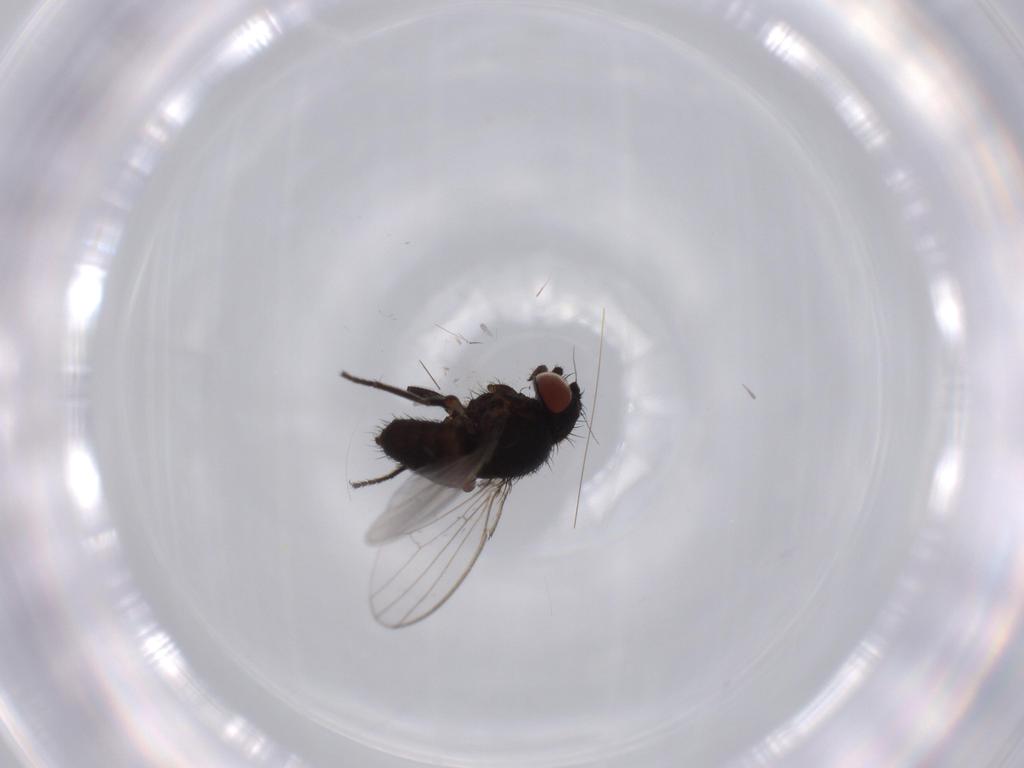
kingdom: Animalia
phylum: Arthropoda
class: Insecta
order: Diptera
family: Milichiidae
